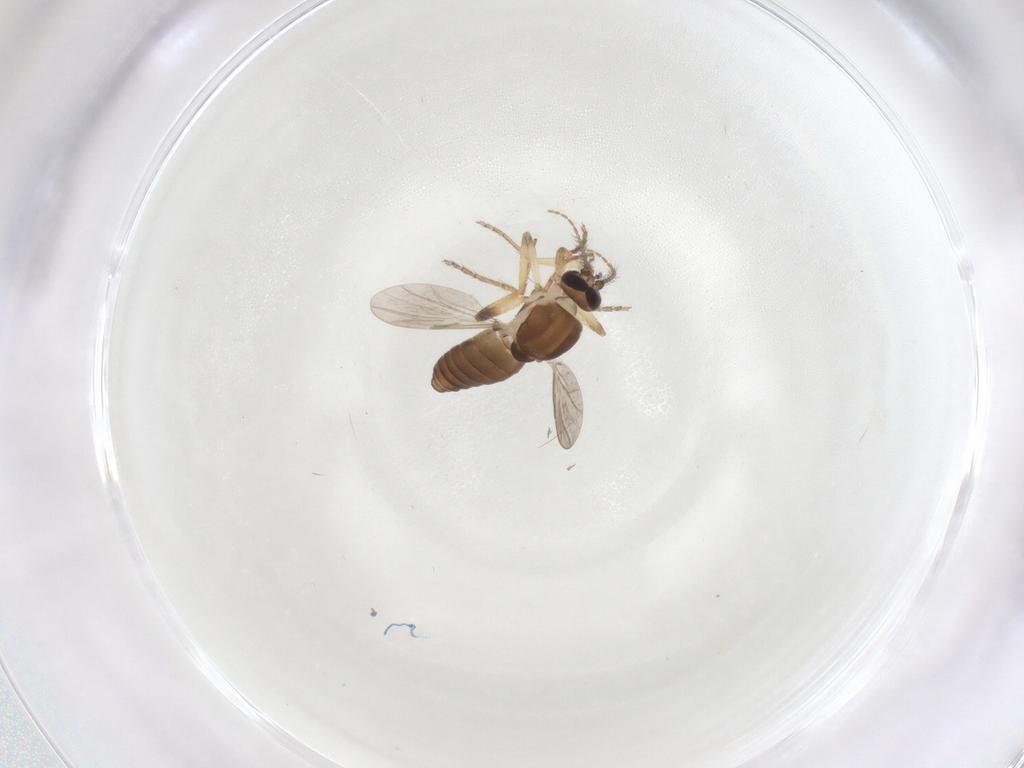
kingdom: Animalia
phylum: Arthropoda
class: Insecta
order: Diptera
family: Ceratopogonidae
